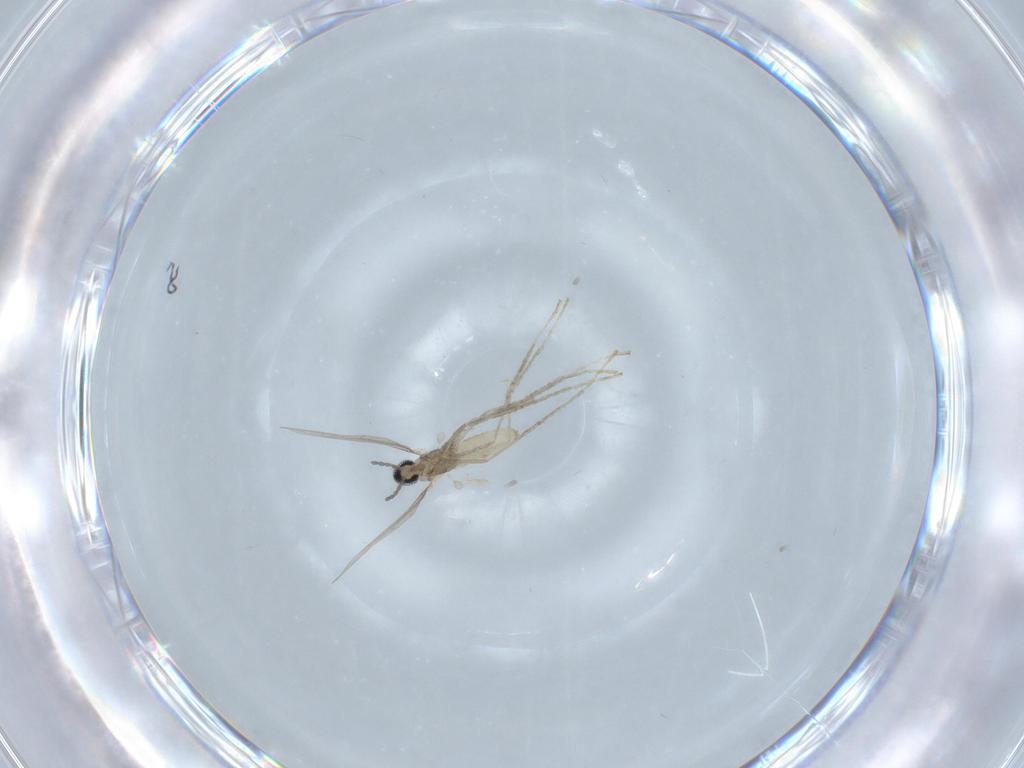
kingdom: Animalia
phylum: Arthropoda
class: Insecta
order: Diptera
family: Cecidomyiidae
